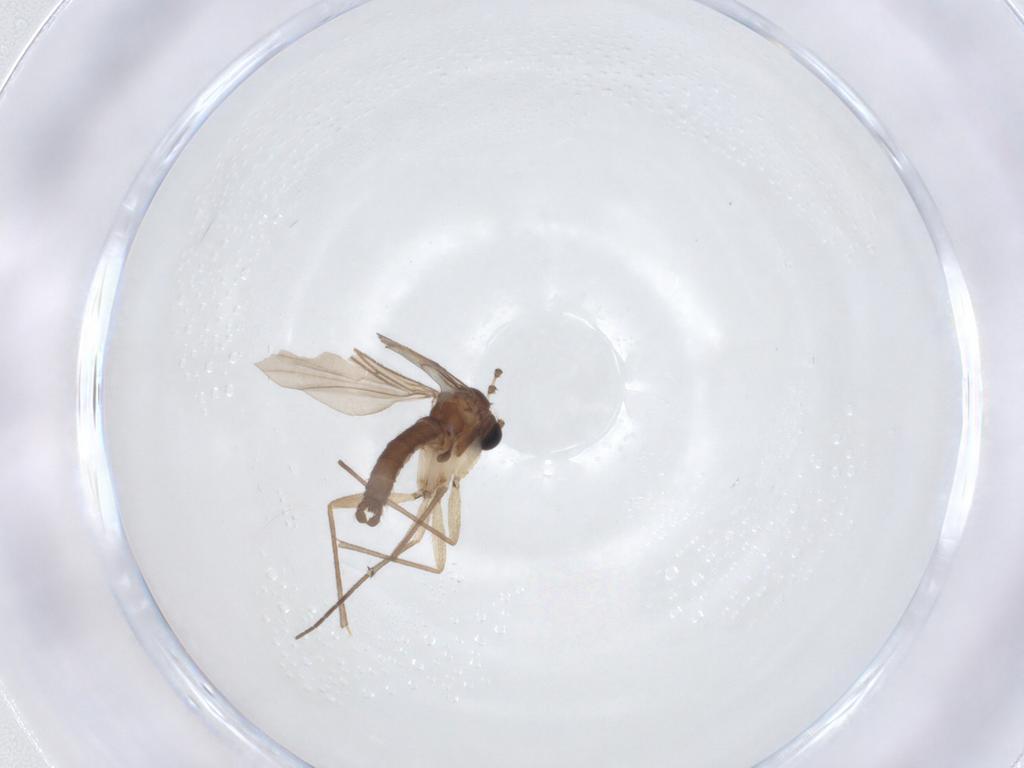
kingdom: Animalia
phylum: Arthropoda
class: Insecta
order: Diptera
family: Sciaridae
